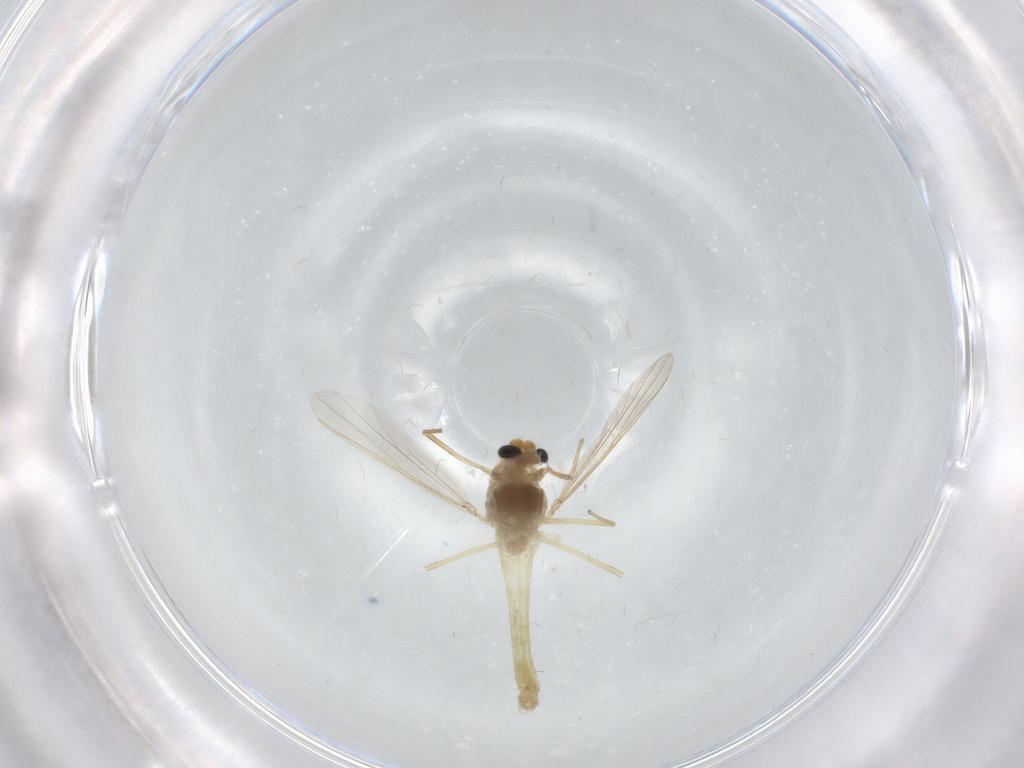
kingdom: Animalia
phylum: Arthropoda
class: Insecta
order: Diptera
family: Chironomidae
